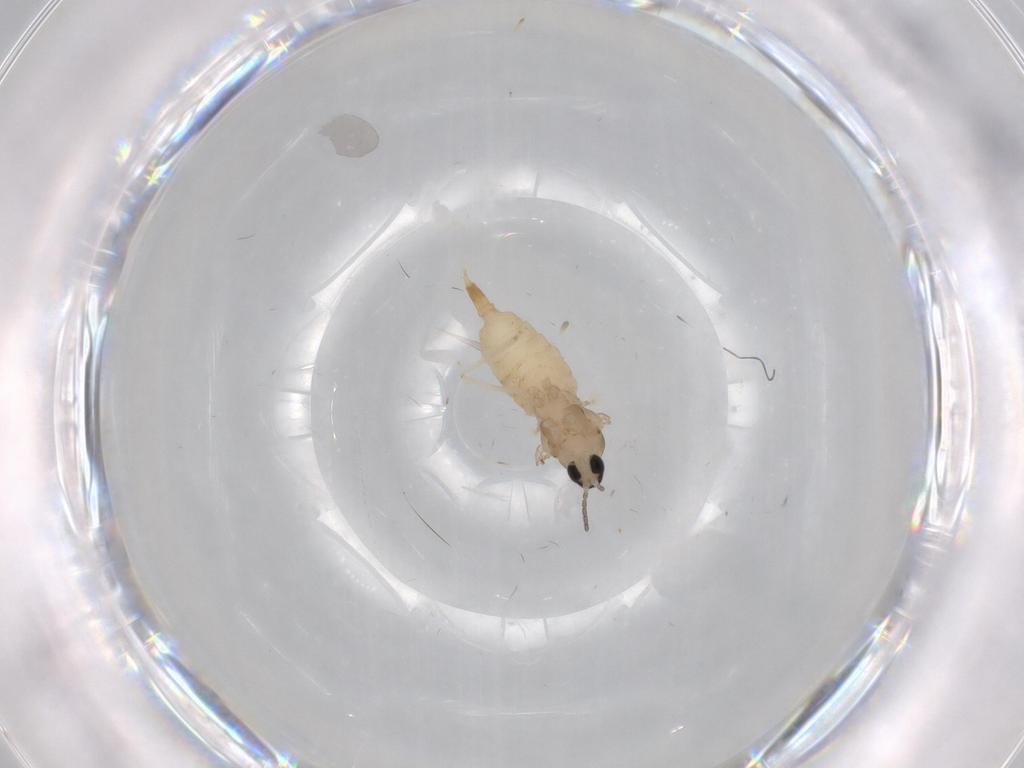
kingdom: Animalia
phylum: Arthropoda
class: Insecta
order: Diptera
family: Cecidomyiidae
